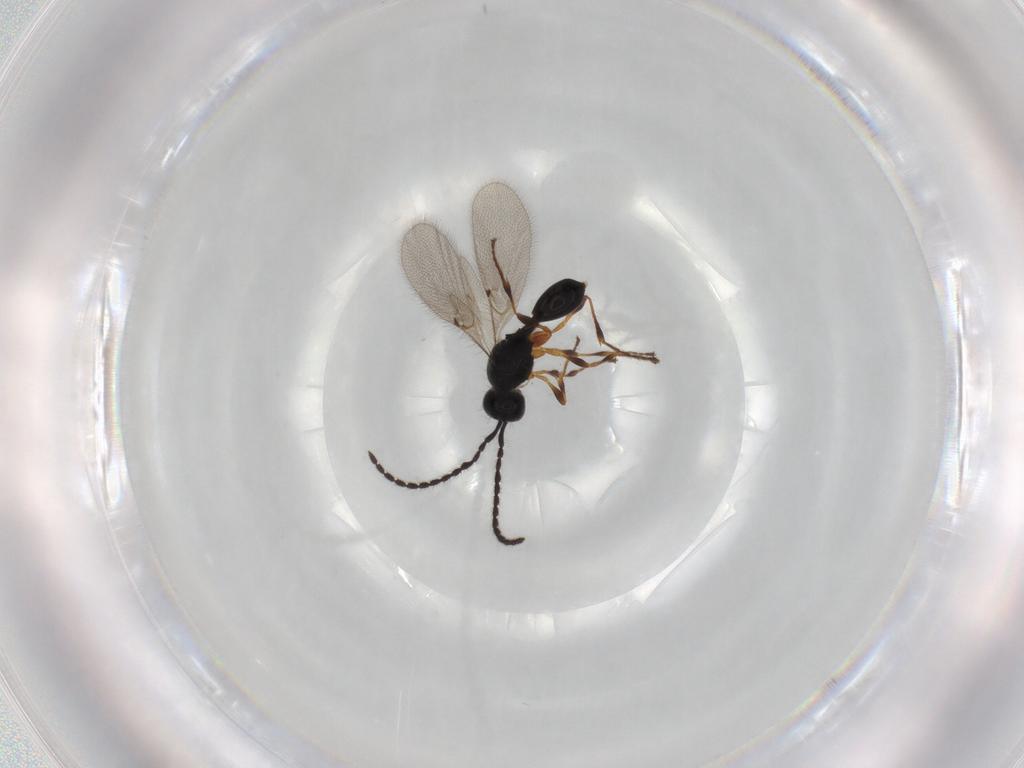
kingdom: Animalia
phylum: Arthropoda
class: Insecta
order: Hymenoptera
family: Diapriidae
